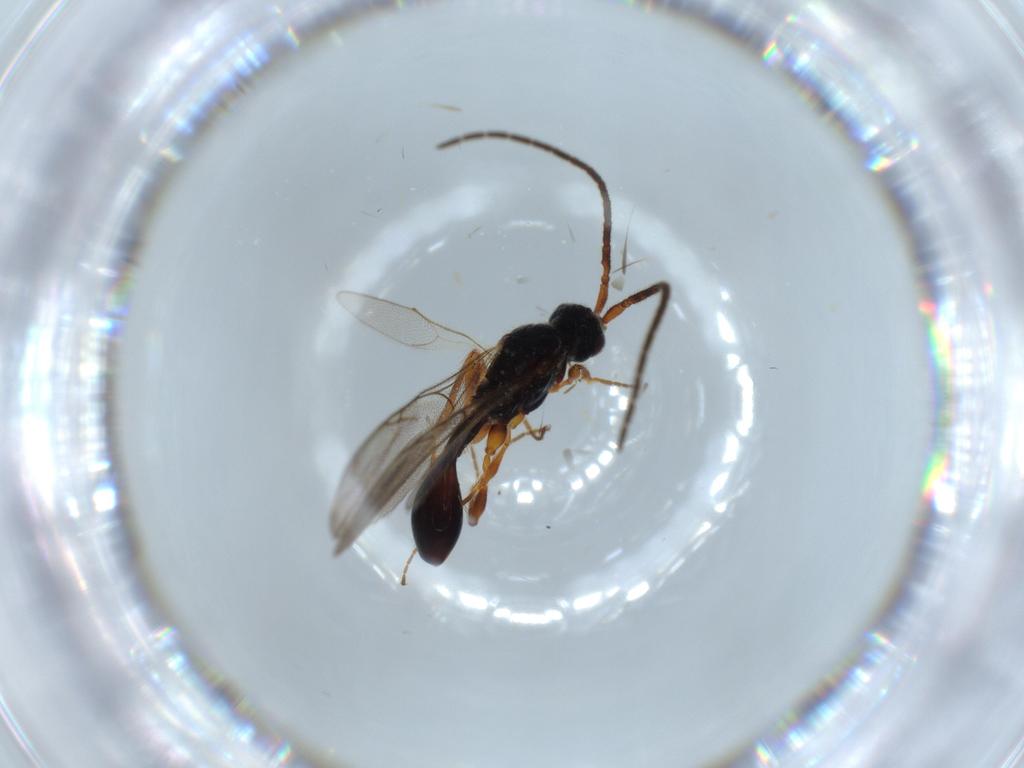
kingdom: Animalia
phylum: Arthropoda
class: Insecta
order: Hymenoptera
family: Diapriidae
